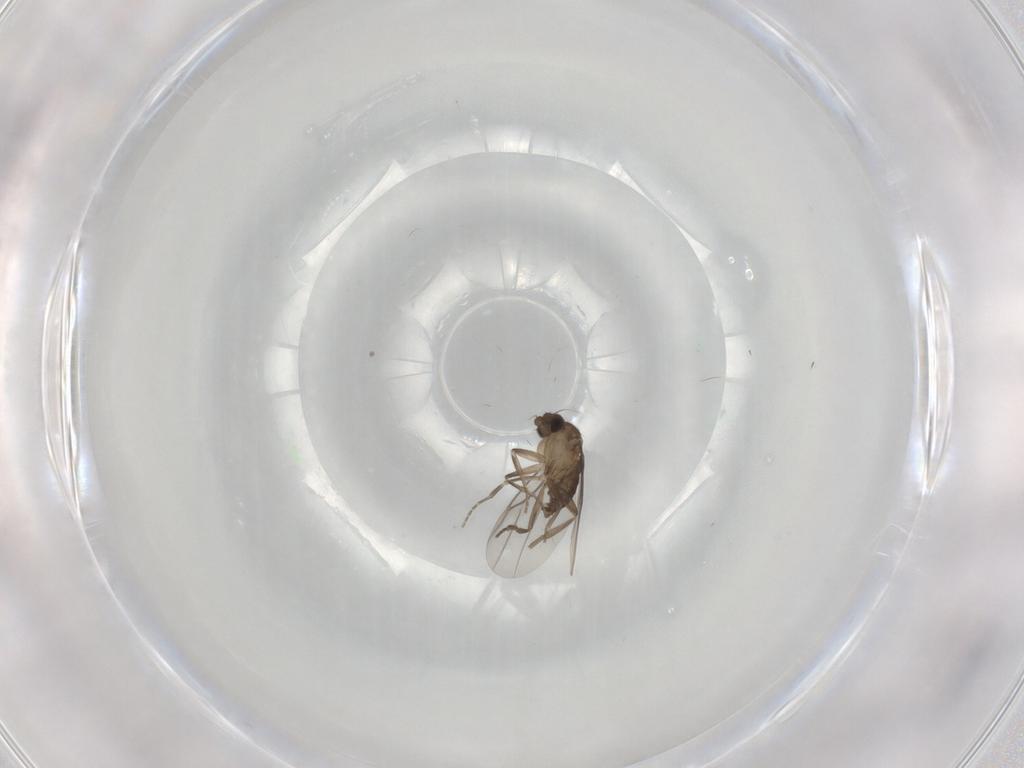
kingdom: Animalia
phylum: Arthropoda
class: Insecta
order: Diptera
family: Phoridae
